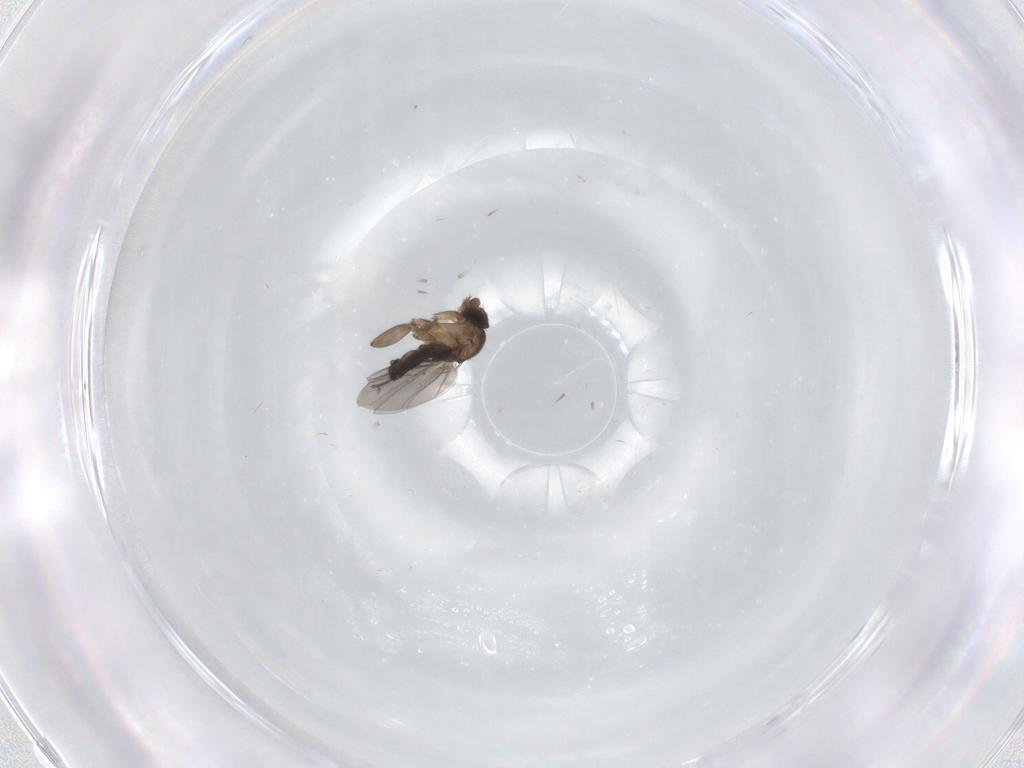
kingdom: Animalia
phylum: Arthropoda
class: Insecta
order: Diptera
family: Phoridae
